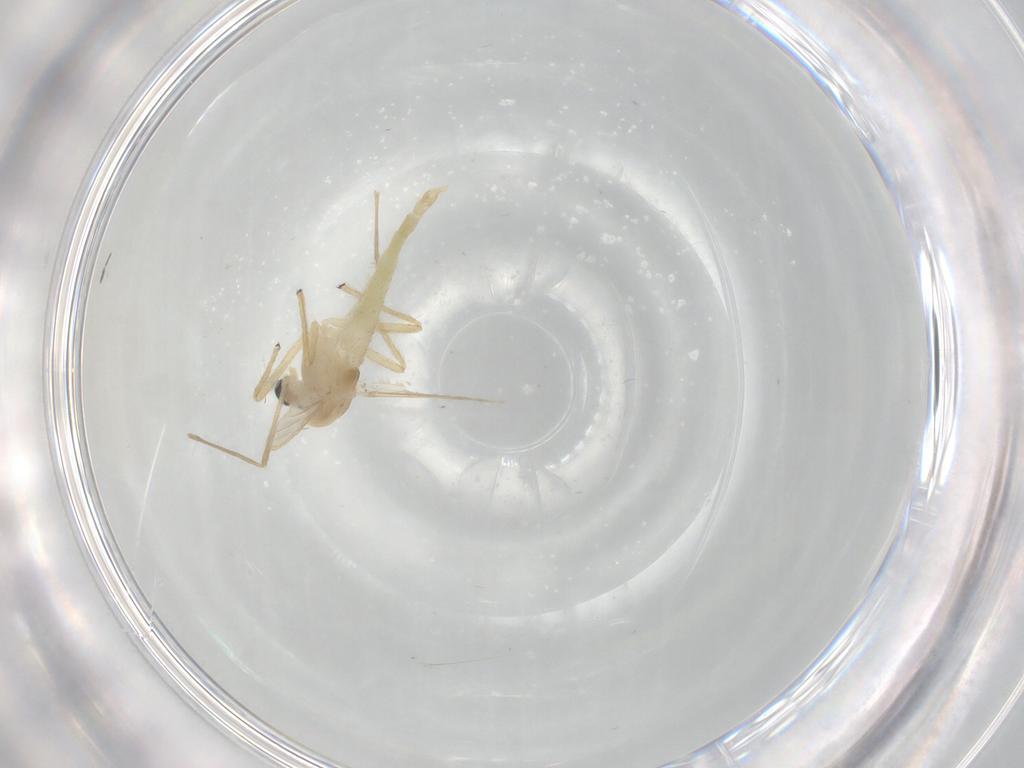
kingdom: Animalia
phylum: Arthropoda
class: Insecta
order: Diptera
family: Chironomidae
